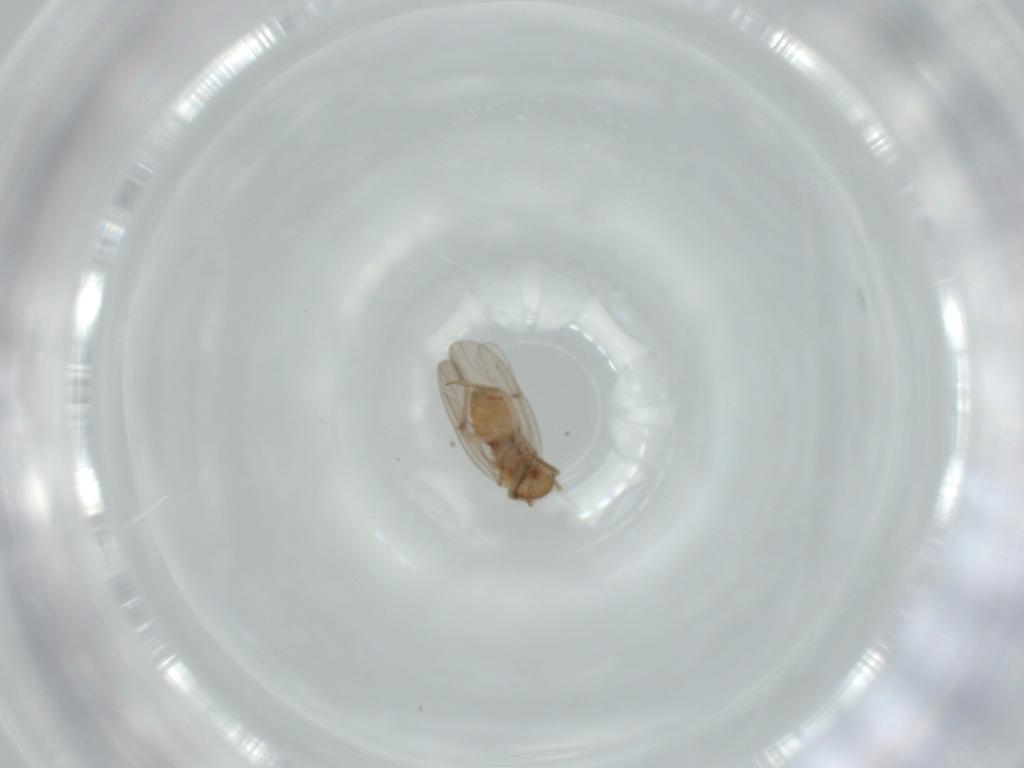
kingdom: Animalia
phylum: Arthropoda
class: Insecta
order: Psocodea
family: Ectopsocidae
